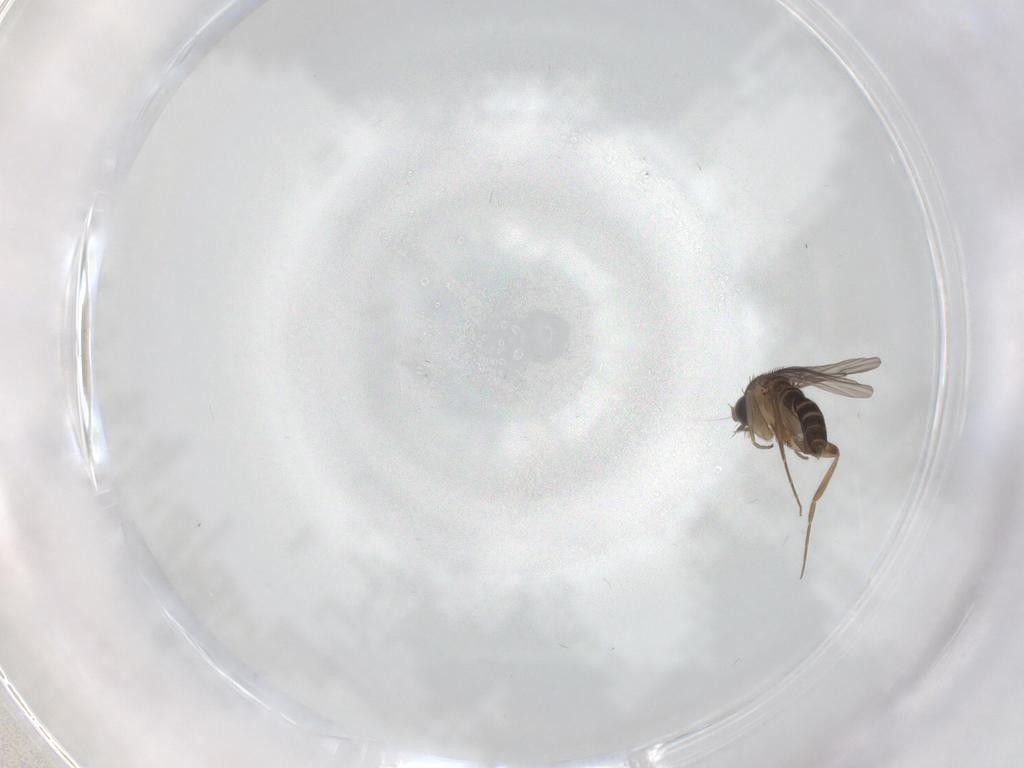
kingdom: Animalia
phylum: Arthropoda
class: Insecta
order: Diptera
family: Phoridae
